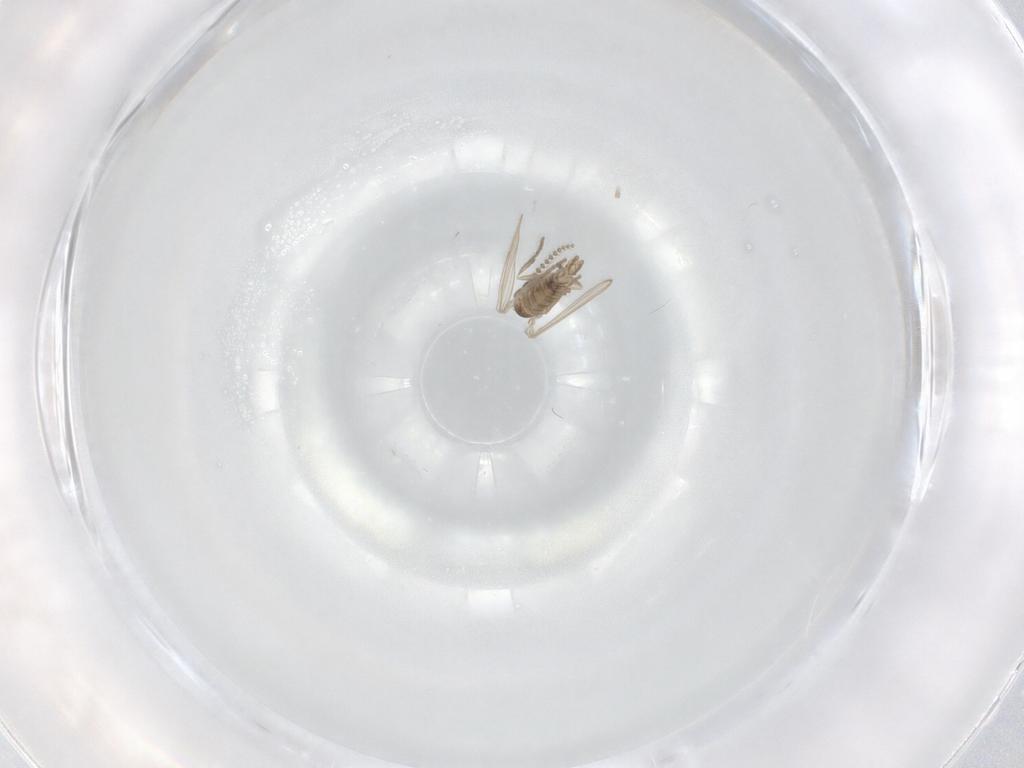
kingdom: Animalia
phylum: Arthropoda
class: Insecta
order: Diptera
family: Psychodidae
